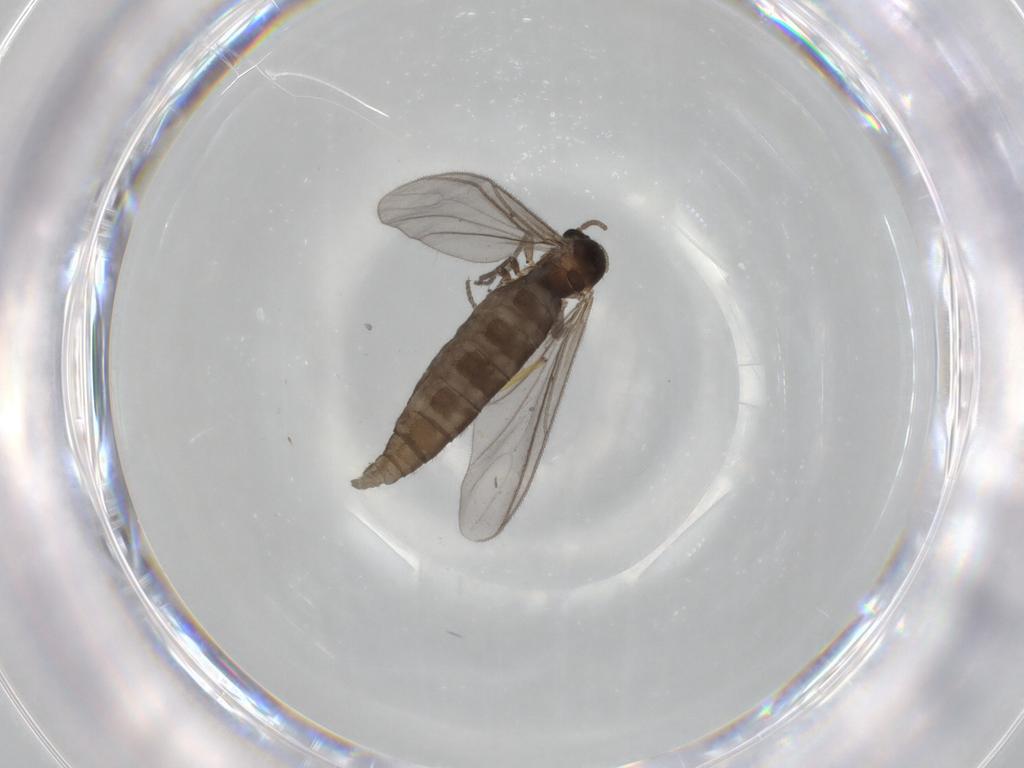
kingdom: Animalia
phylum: Arthropoda
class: Insecta
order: Diptera
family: Sciaridae
